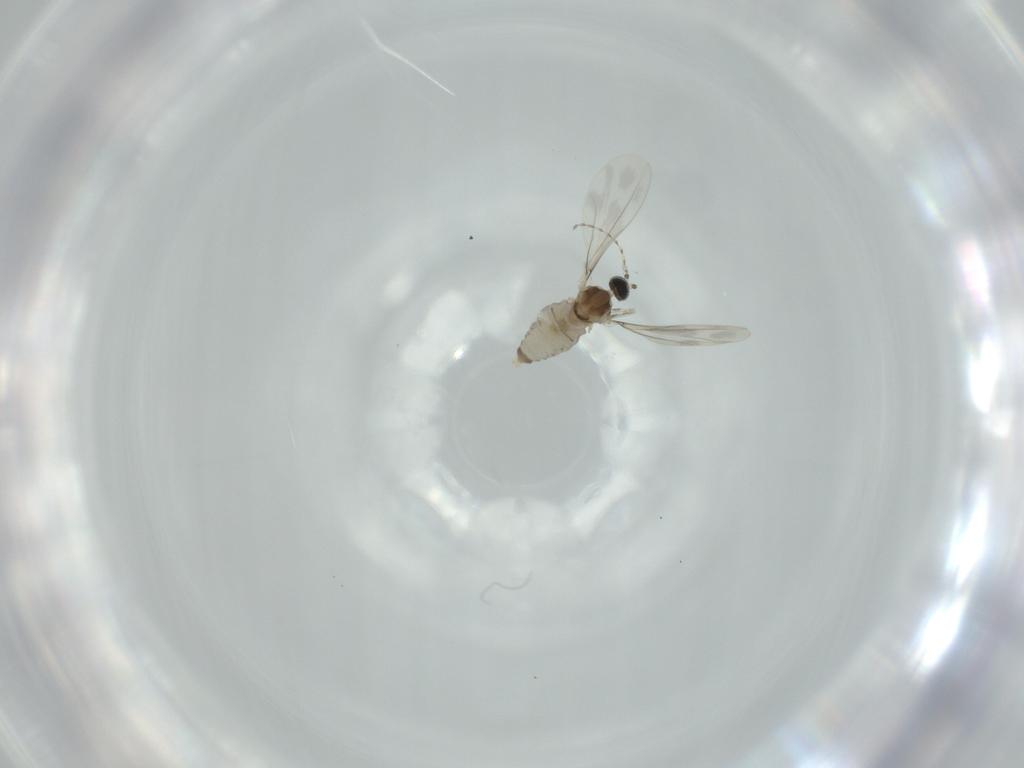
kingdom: Animalia
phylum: Arthropoda
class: Insecta
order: Diptera
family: Cecidomyiidae
